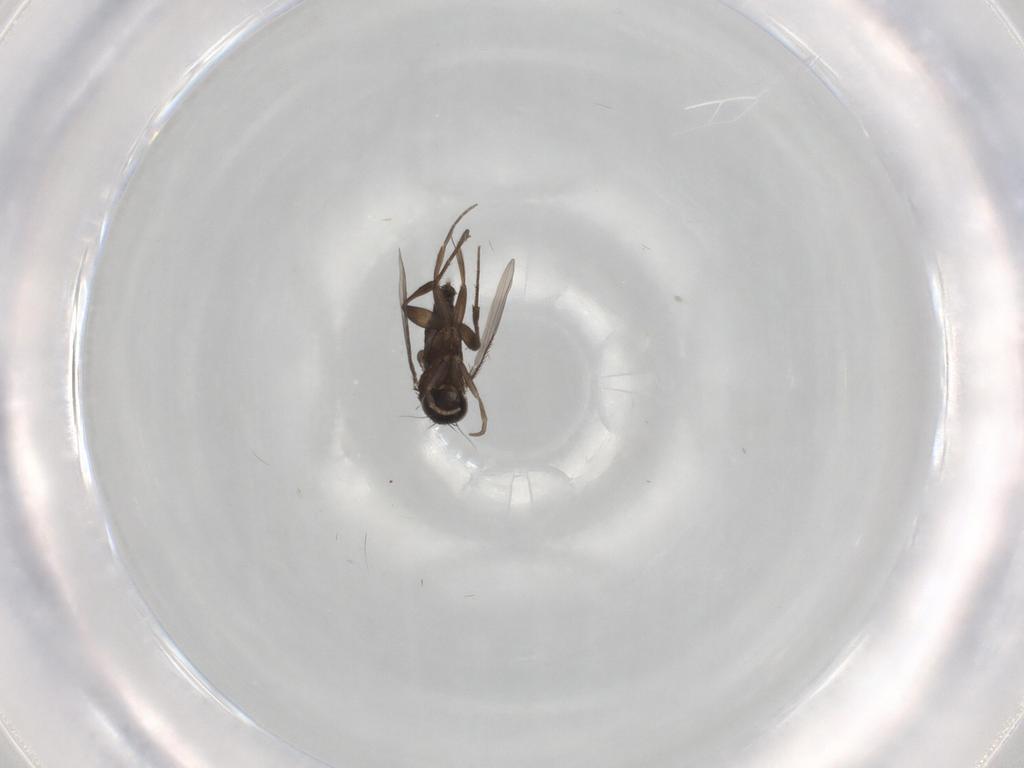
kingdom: Animalia
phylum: Arthropoda
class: Insecta
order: Diptera
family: Phoridae
